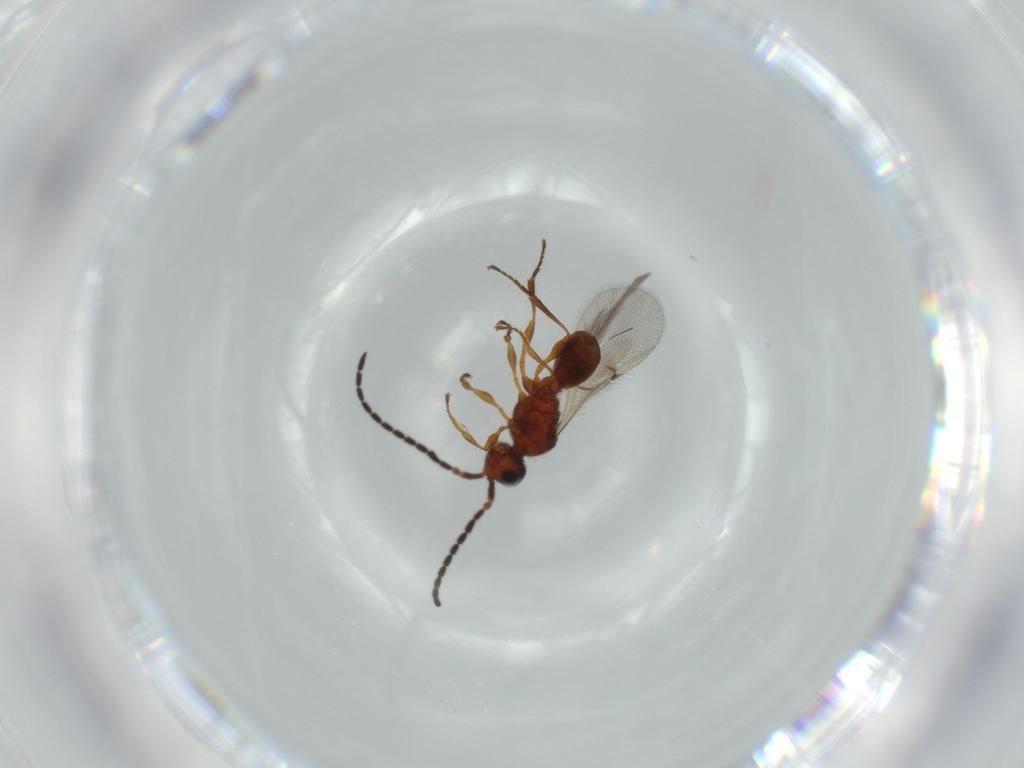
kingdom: Animalia
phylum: Arthropoda
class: Insecta
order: Hymenoptera
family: Diapriidae
